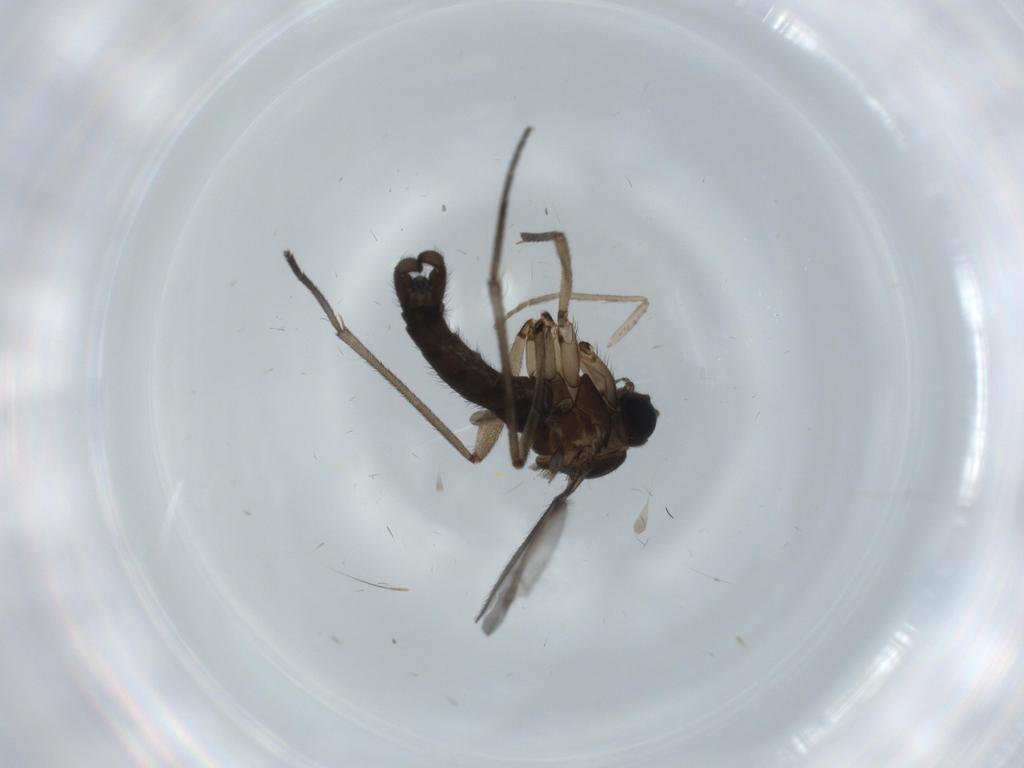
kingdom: Animalia
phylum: Arthropoda
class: Insecta
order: Diptera
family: Sciaridae
